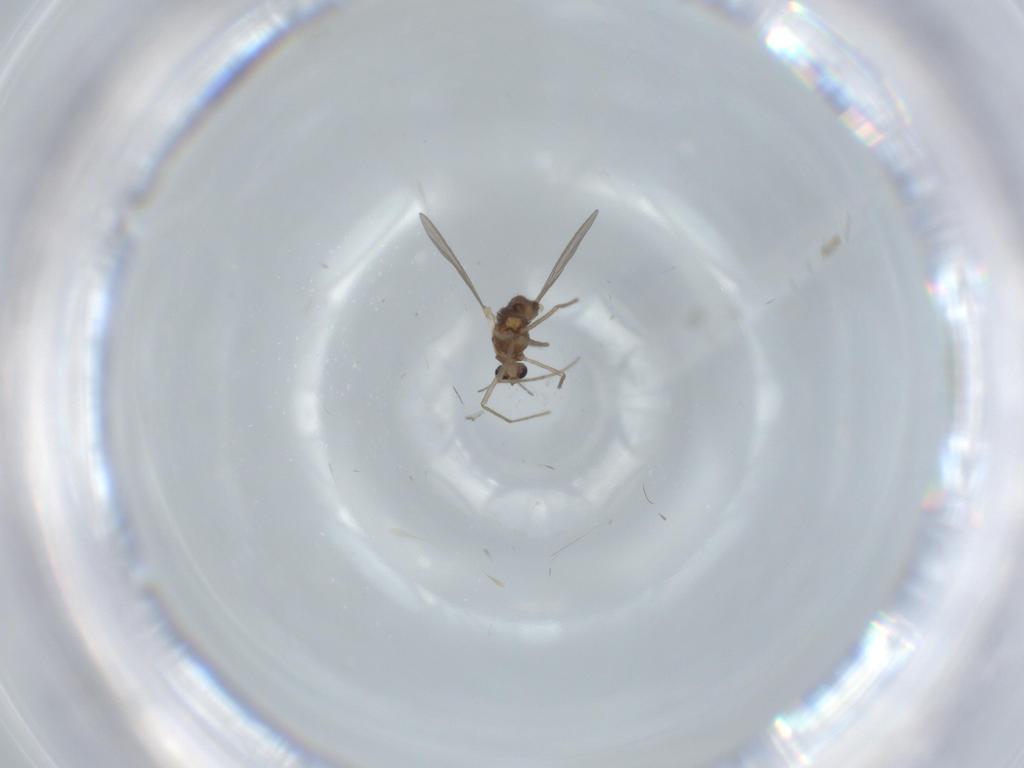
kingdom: Animalia
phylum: Arthropoda
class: Insecta
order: Diptera
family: Chironomidae
